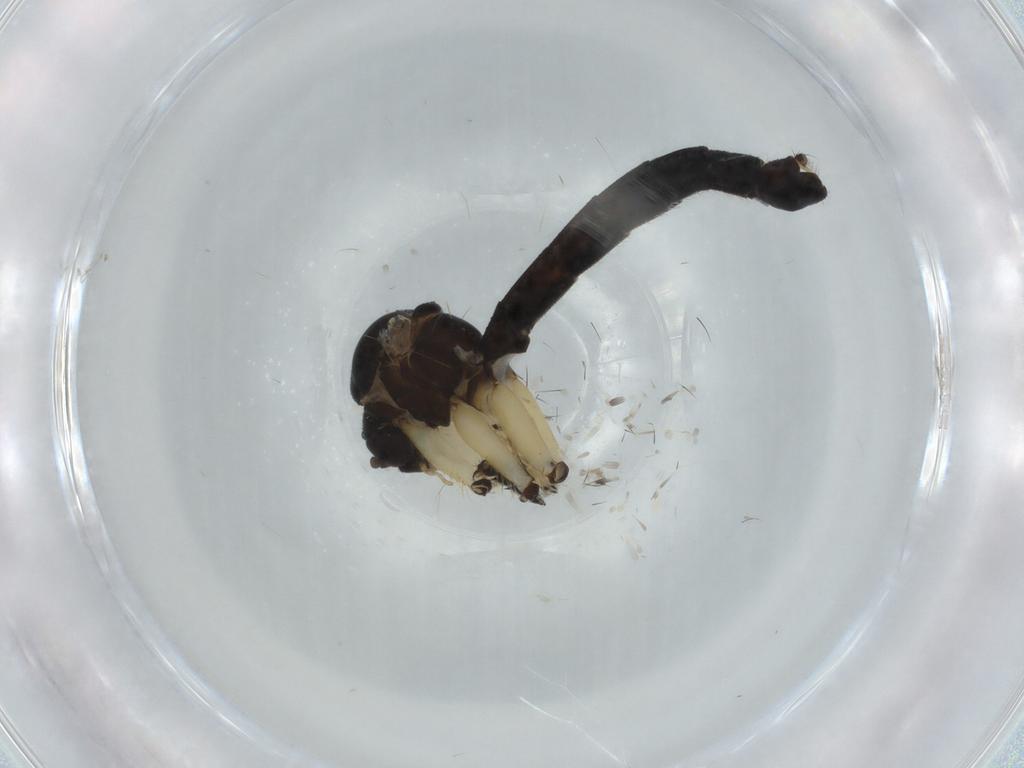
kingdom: Animalia
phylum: Arthropoda
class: Insecta
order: Diptera
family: Mycetophilidae
